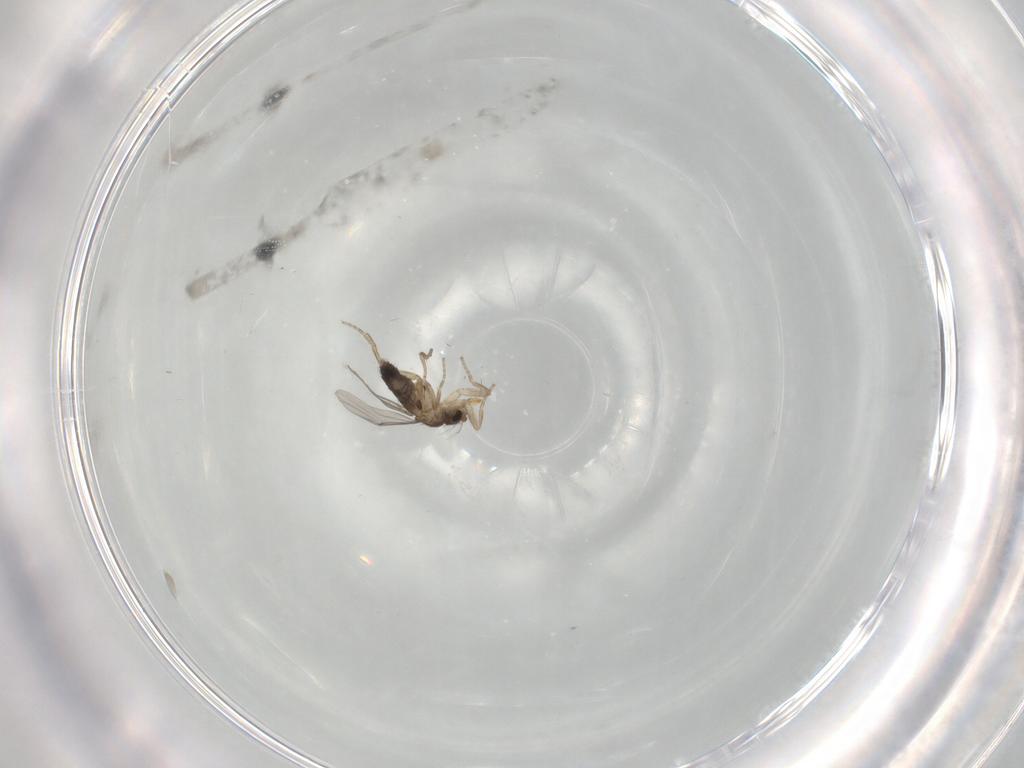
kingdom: Animalia
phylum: Arthropoda
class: Insecta
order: Diptera
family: Phoridae
